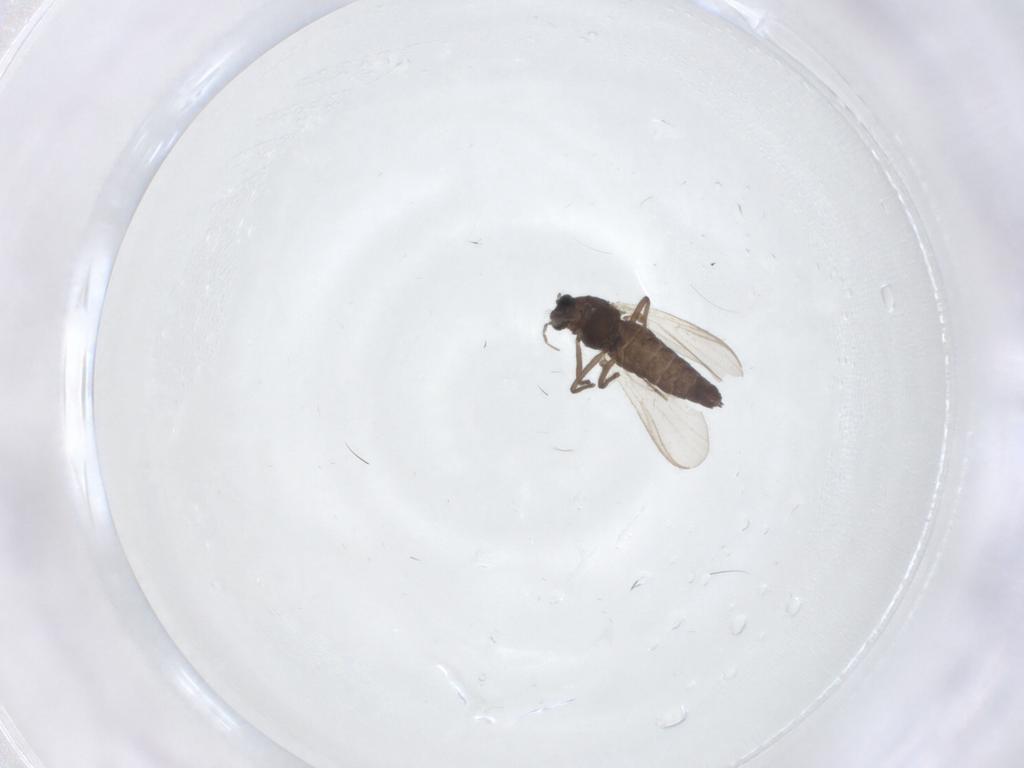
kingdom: Animalia
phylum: Arthropoda
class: Insecta
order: Diptera
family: Chironomidae
